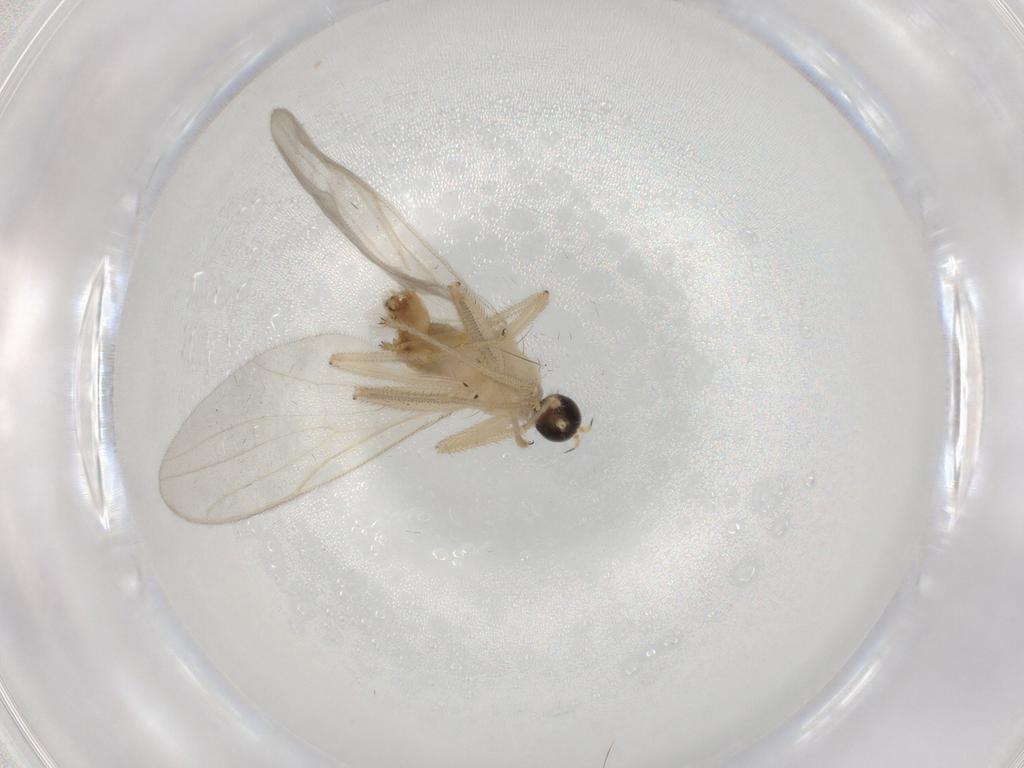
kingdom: Animalia
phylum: Arthropoda
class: Insecta
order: Diptera
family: Hybotidae
